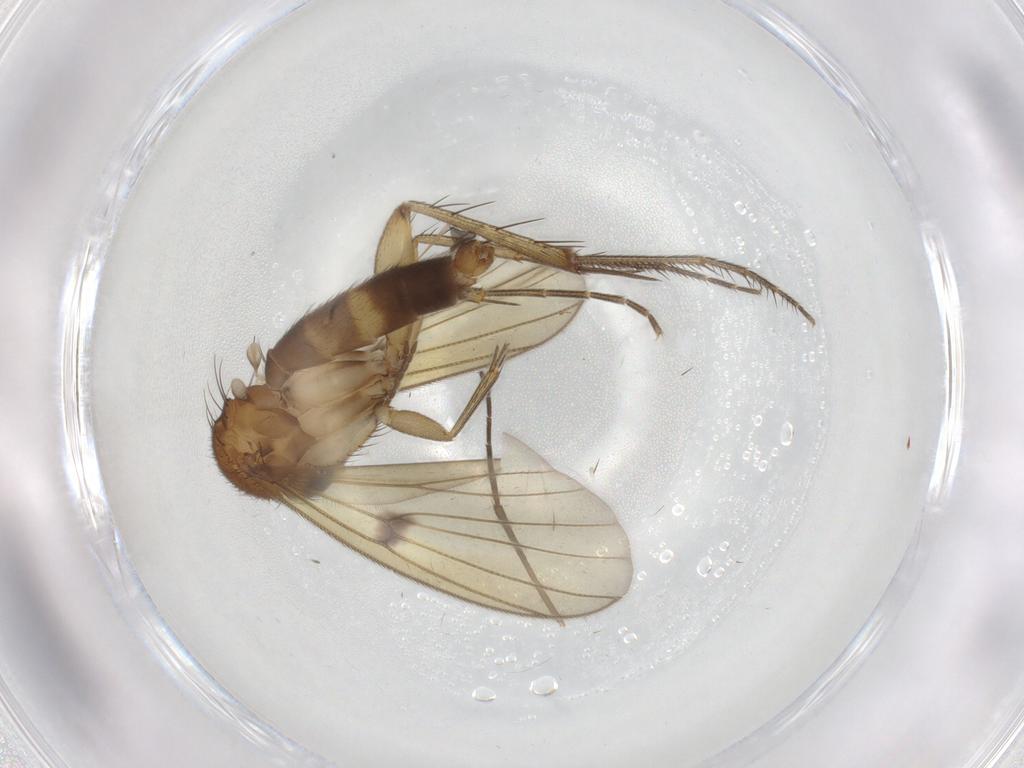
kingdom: Animalia
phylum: Arthropoda
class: Insecta
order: Diptera
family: Mycetophilidae
